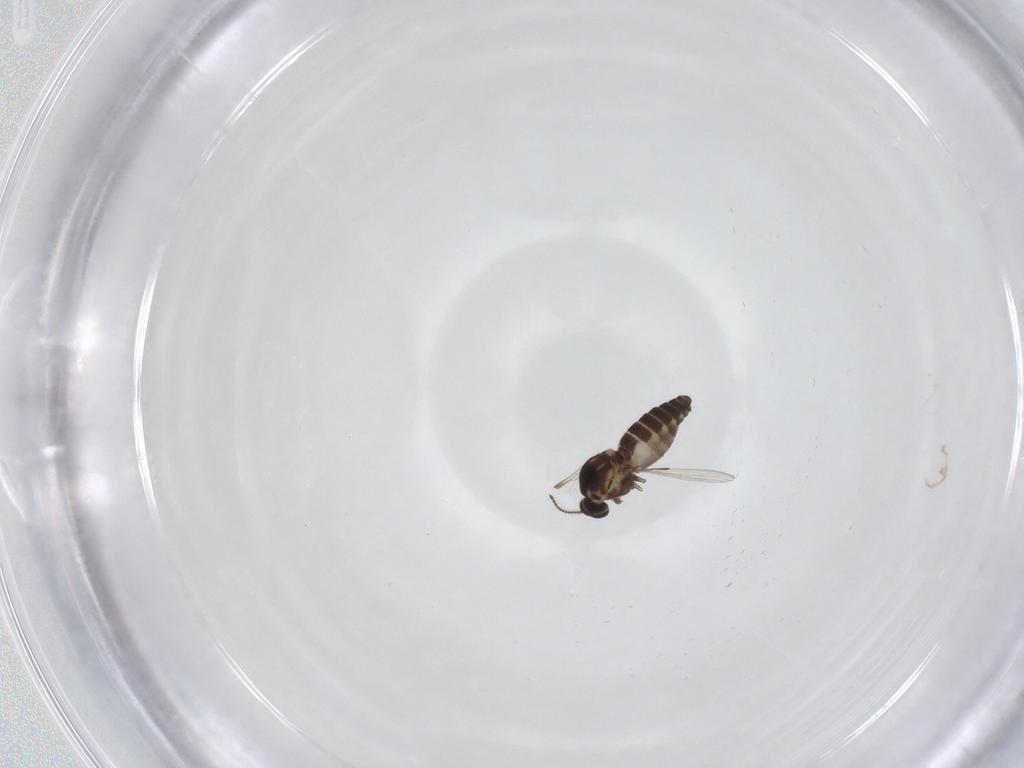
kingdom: Animalia
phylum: Arthropoda
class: Insecta
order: Diptera
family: Ceratopogonidae
